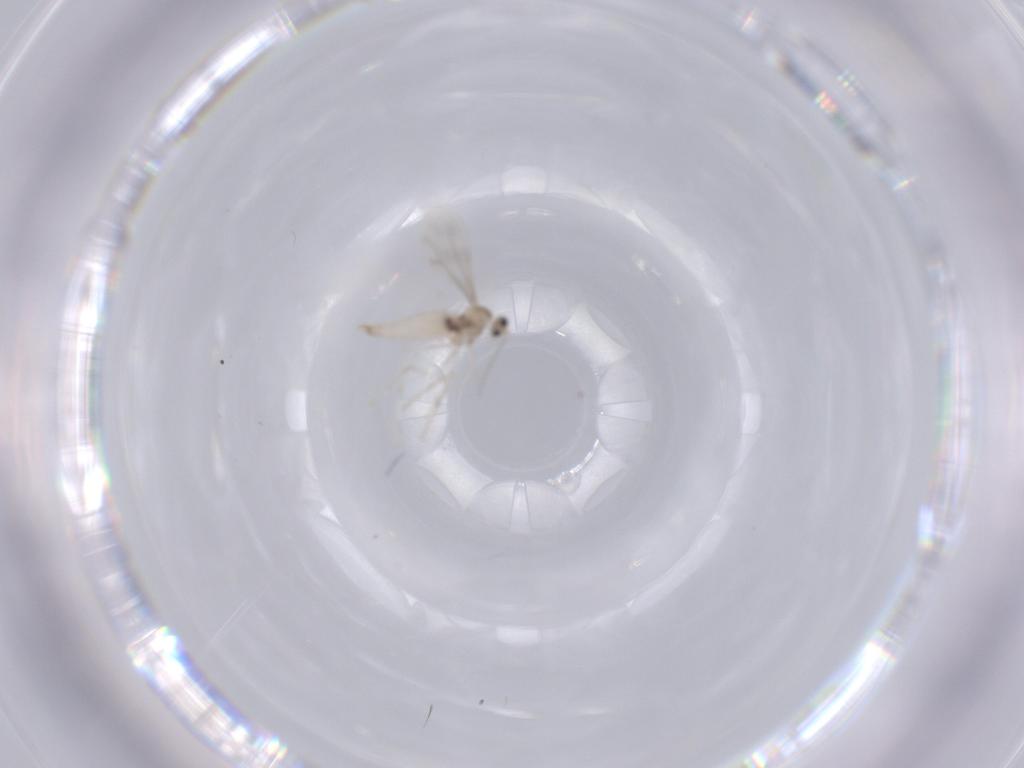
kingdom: Animalia
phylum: Arthropoda
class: Insecta
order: Diptera
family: Cecidomyiidae
